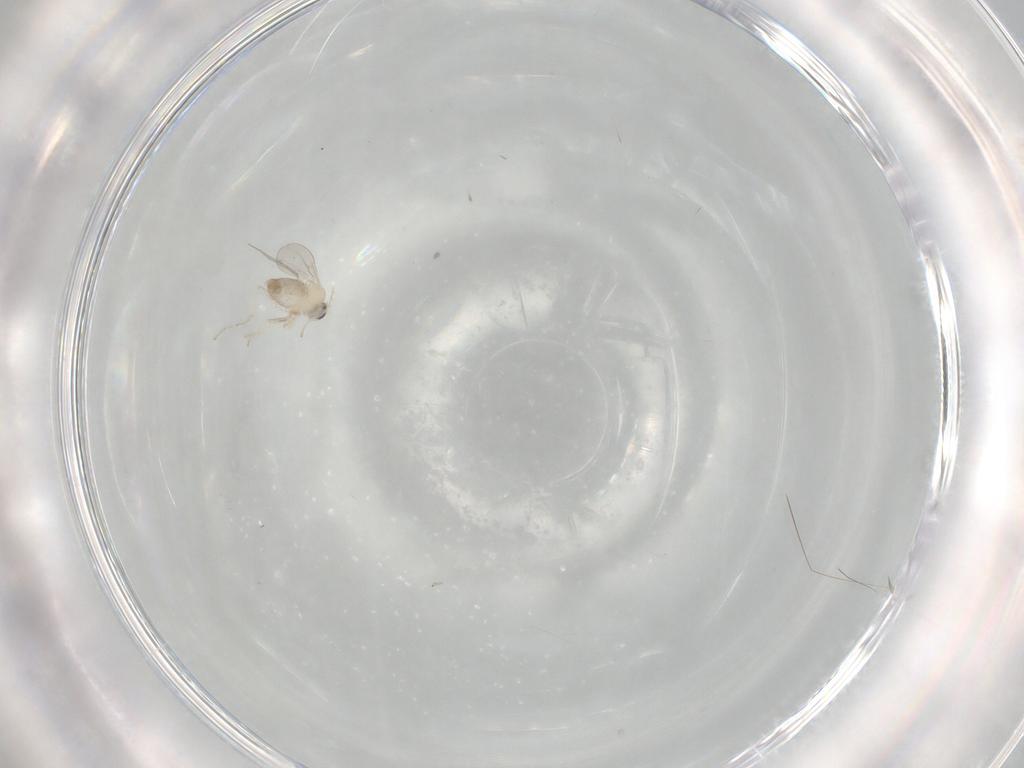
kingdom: Animalia
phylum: Arthropoda
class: Insecta
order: Diptera
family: Cecidomyiidae
